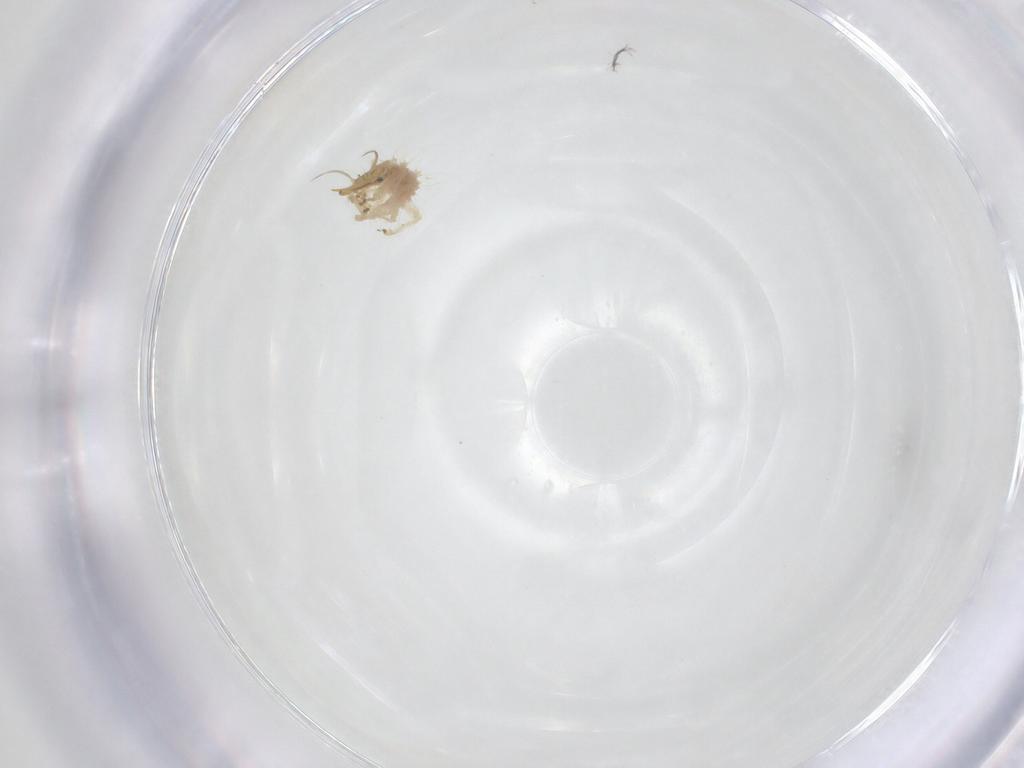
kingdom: Animalia
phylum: Arthropoda
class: Insecta
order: Neuroptera
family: Chrysopidae
